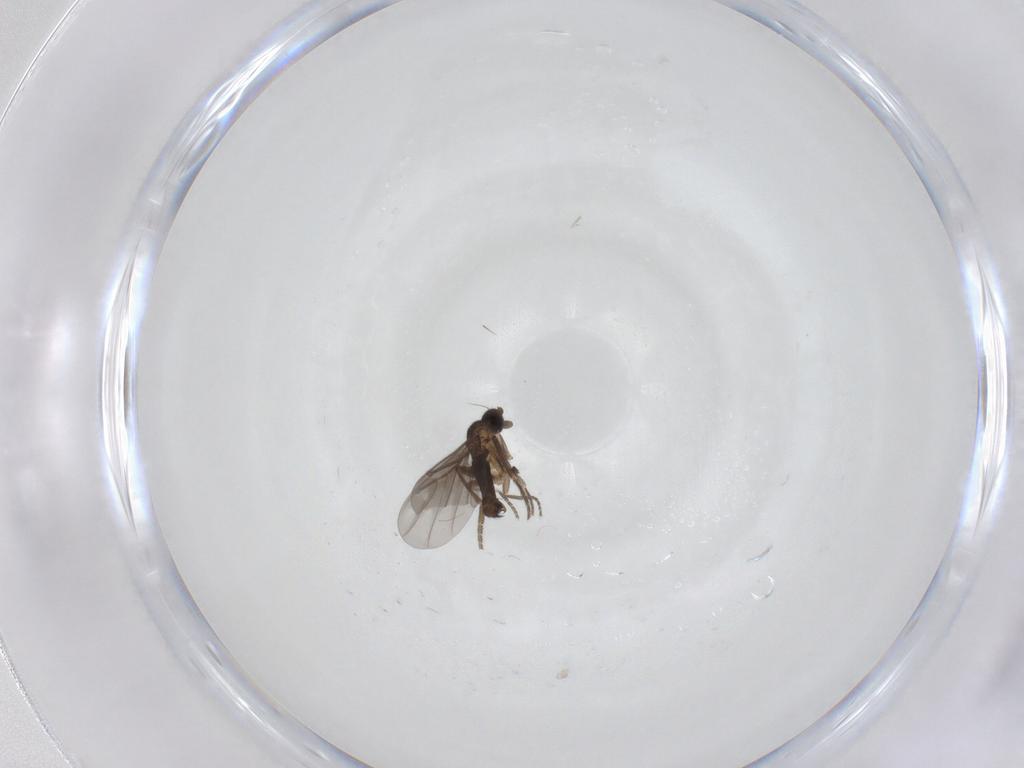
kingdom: Animalia
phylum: Arthropoda
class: Insecta
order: Diptera
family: Phoridae
